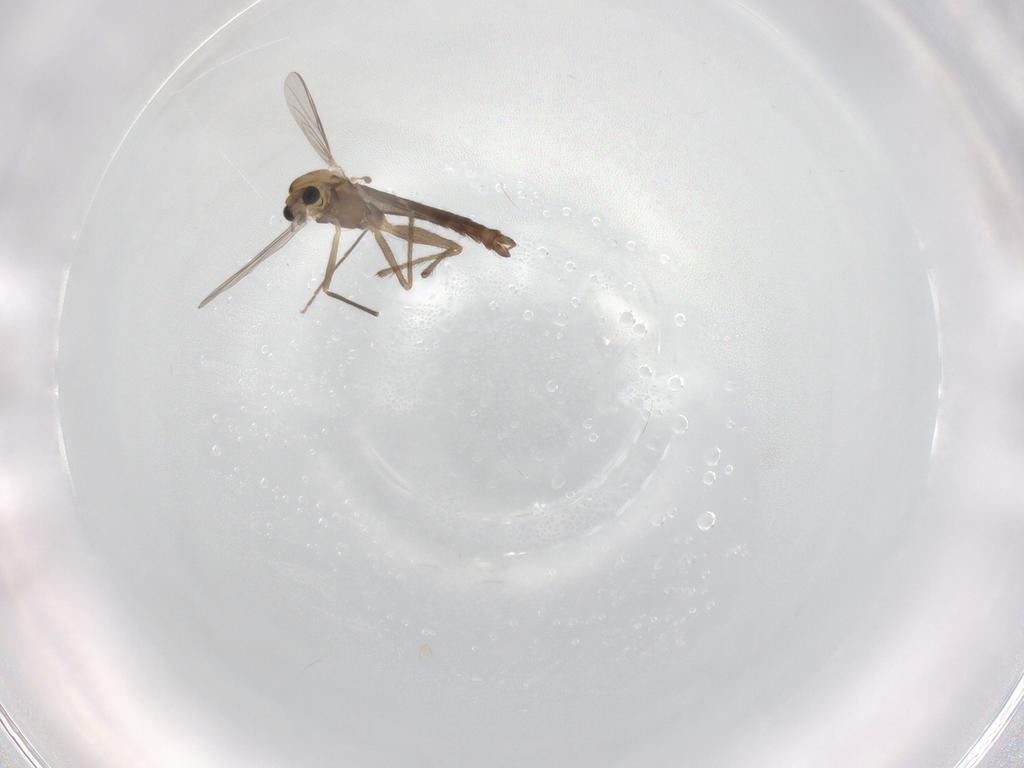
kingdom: Animalia
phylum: Arthropoda
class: Insecta
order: Diptera
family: Chironomidae
